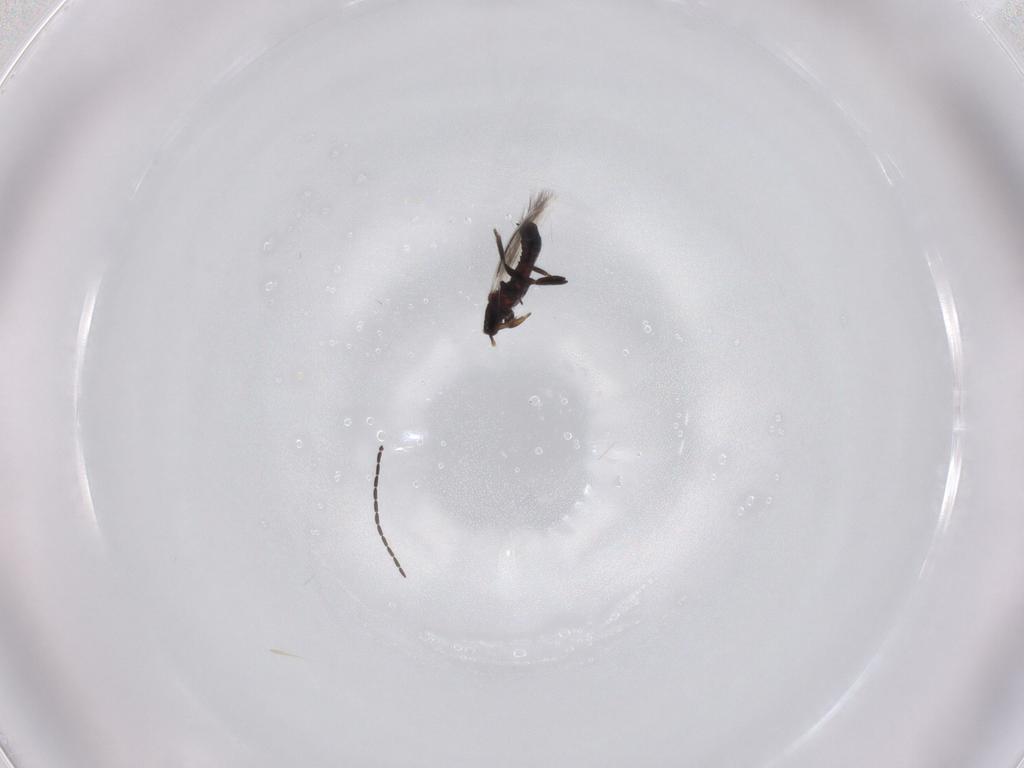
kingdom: Animalia
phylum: Arthropoda
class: Insecta
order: Thysanoptera
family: Aeolothripidae
